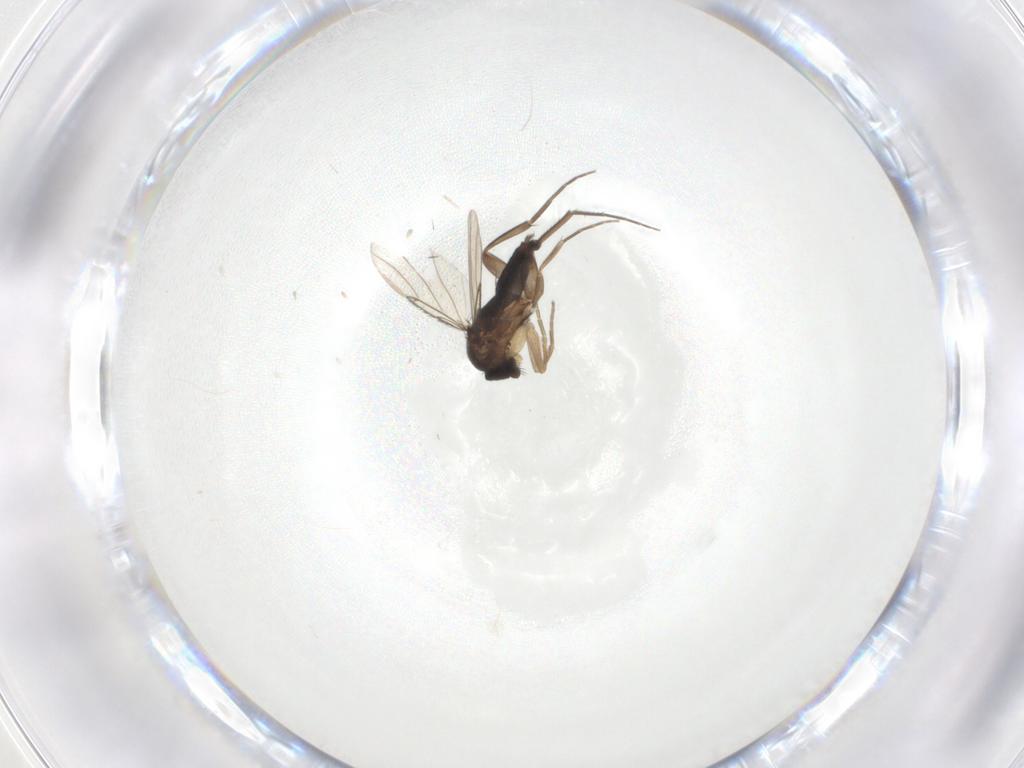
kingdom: Animalia
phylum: Arthropoda
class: Insecta
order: Diptera
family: Phoridae
